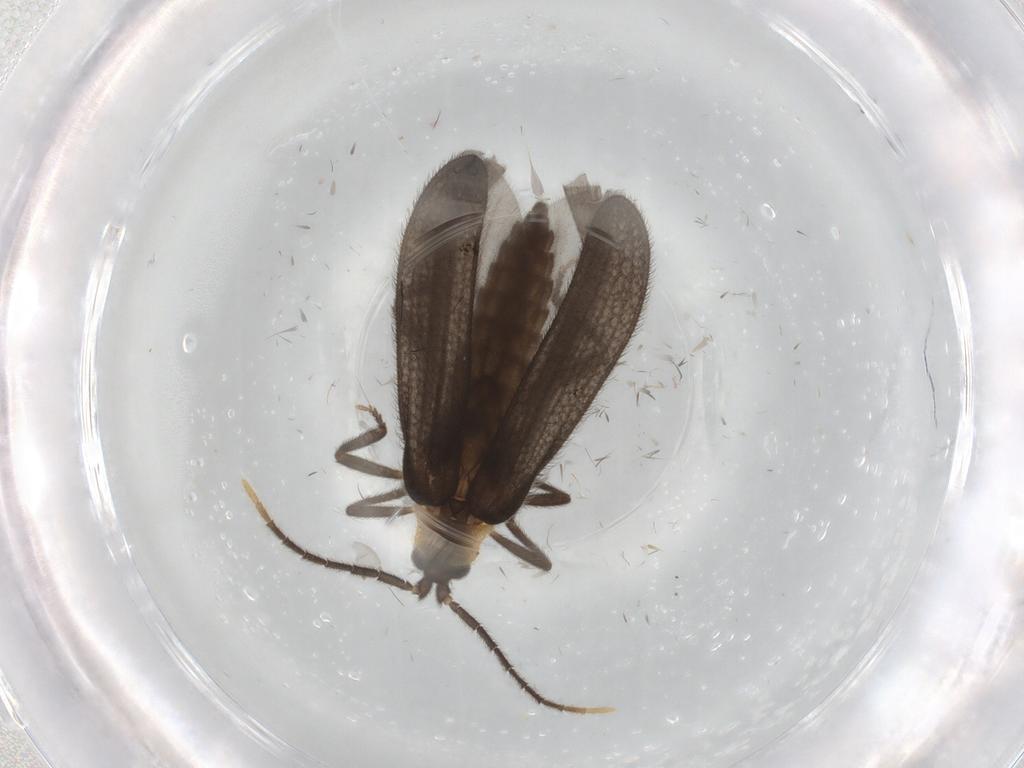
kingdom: Animalia
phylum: Arthropoda
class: Insecta
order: Coleoptera
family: Lycidae
